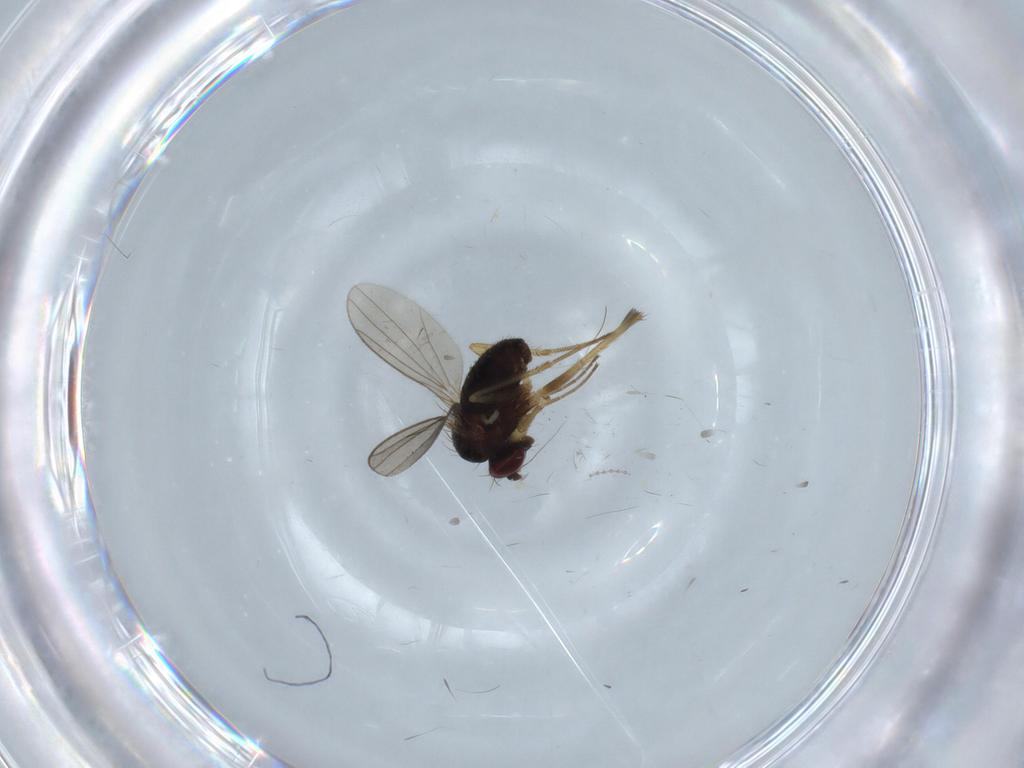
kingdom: Animalia
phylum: Arthropoda
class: Insecta
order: Diptera
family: Dolichopodidae
